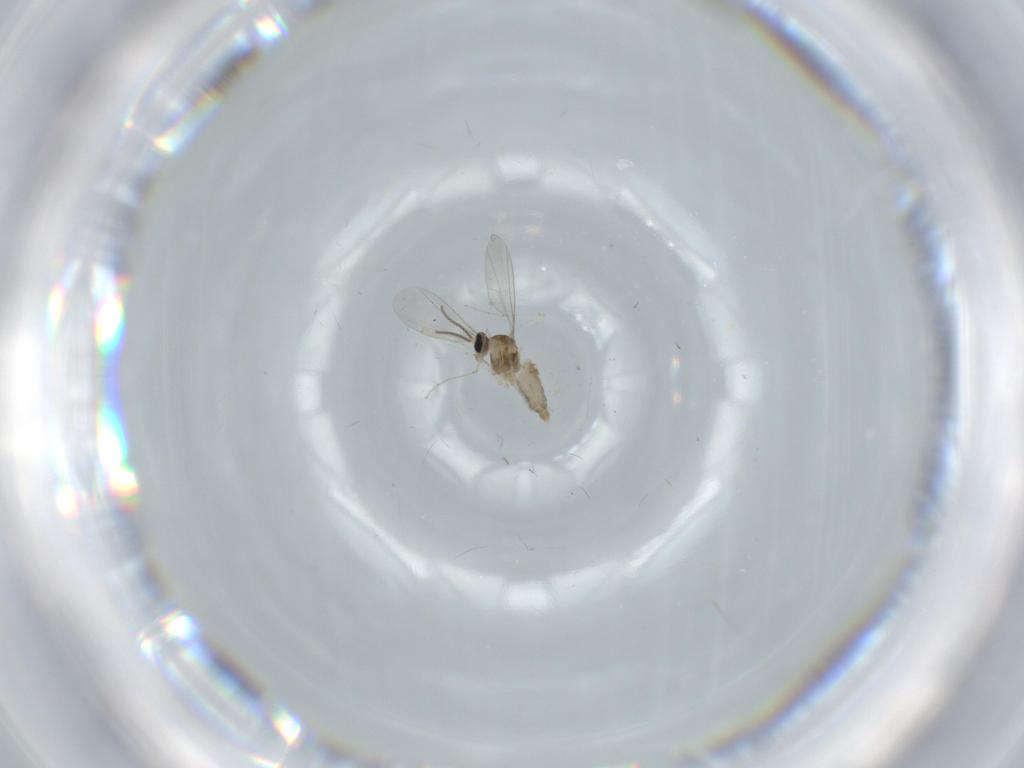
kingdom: Animalia
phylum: Arthropoda
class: Insecta
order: Diptera
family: Cecidomyiidae
